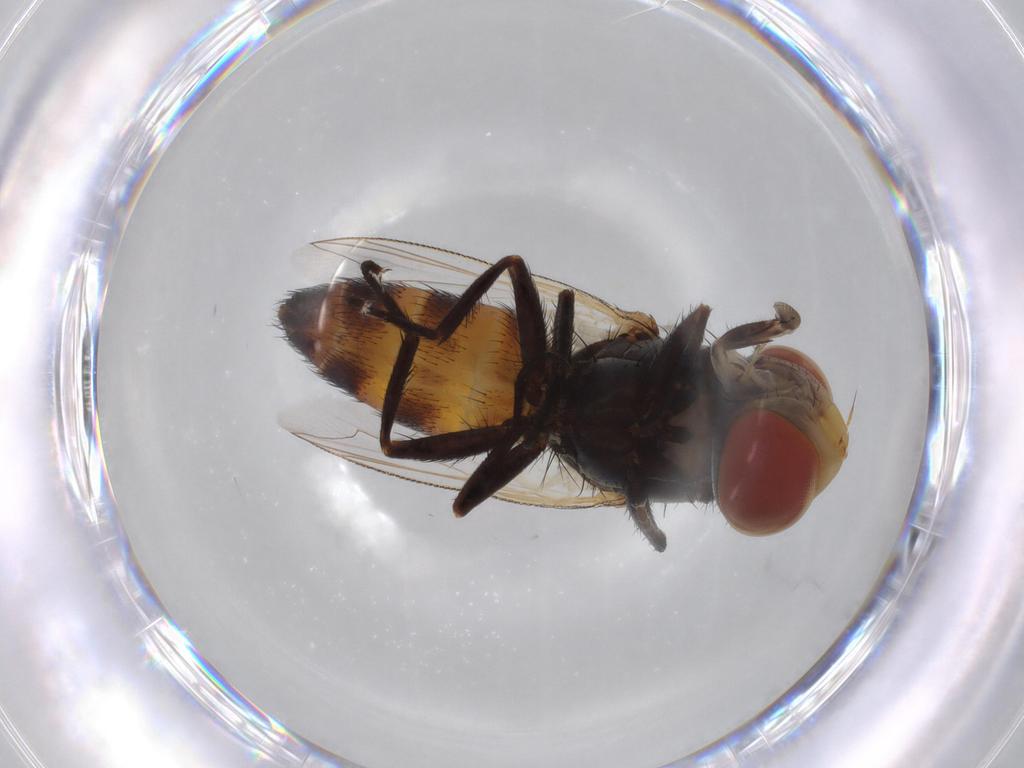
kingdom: Animalia
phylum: Arthropoda
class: Insecta
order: Diptera
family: Sarcophagidae
